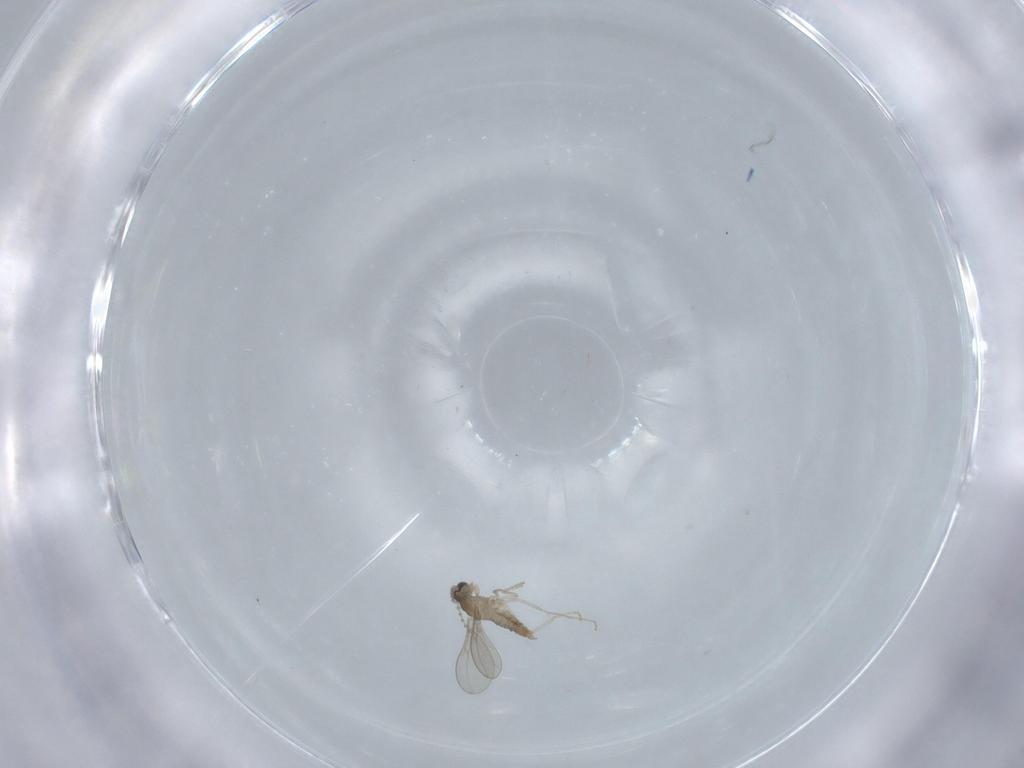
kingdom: Animalia
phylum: Arthropoda
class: Insecta
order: Diptera
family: Cecidomyiidae
